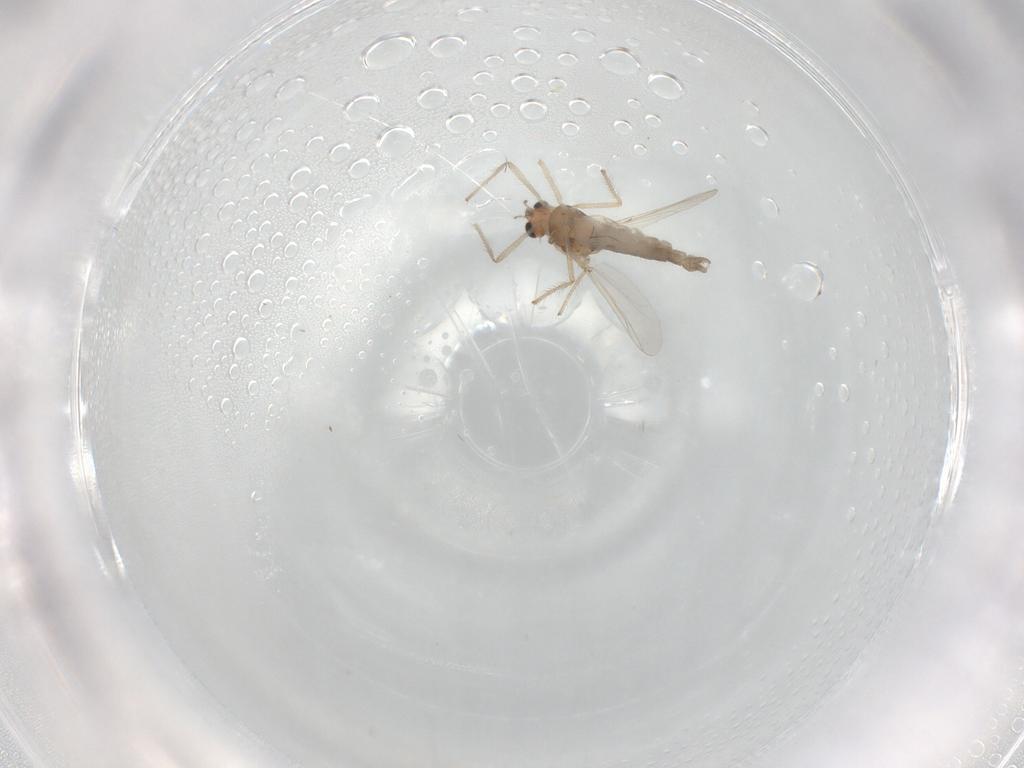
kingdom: Animalia
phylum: Arthropoda
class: Insecta
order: Diptera
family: Chironomidae
